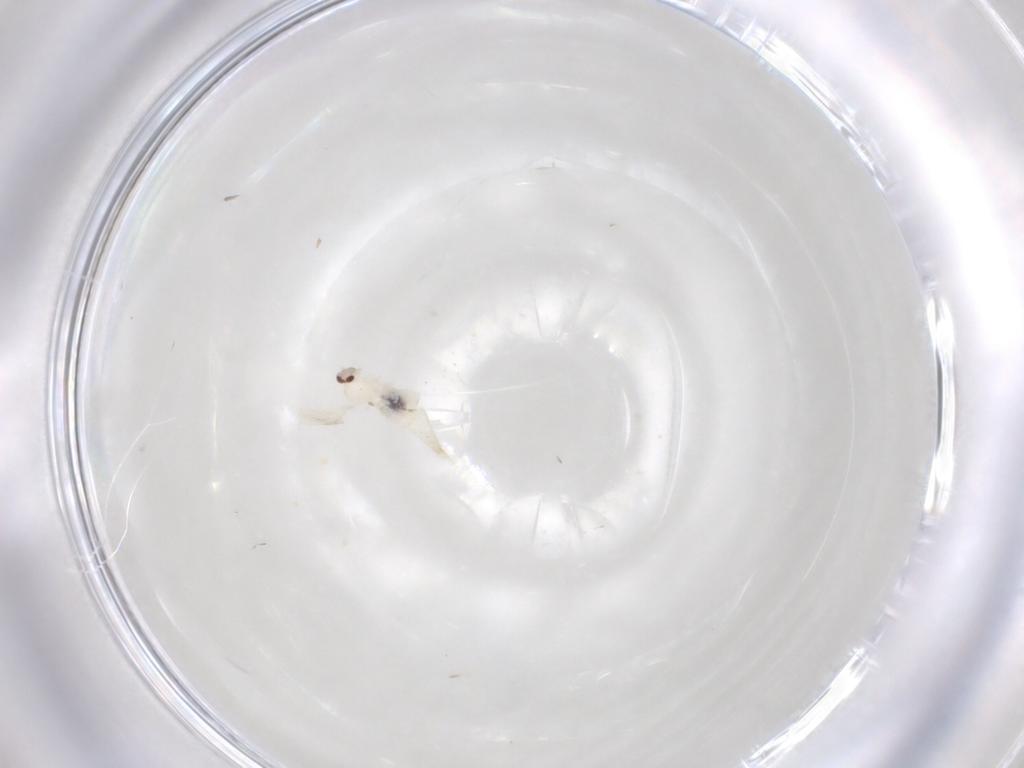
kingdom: Animalia
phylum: Arthropoda
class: Insecta
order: Diptera
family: Cecidomyiidae
